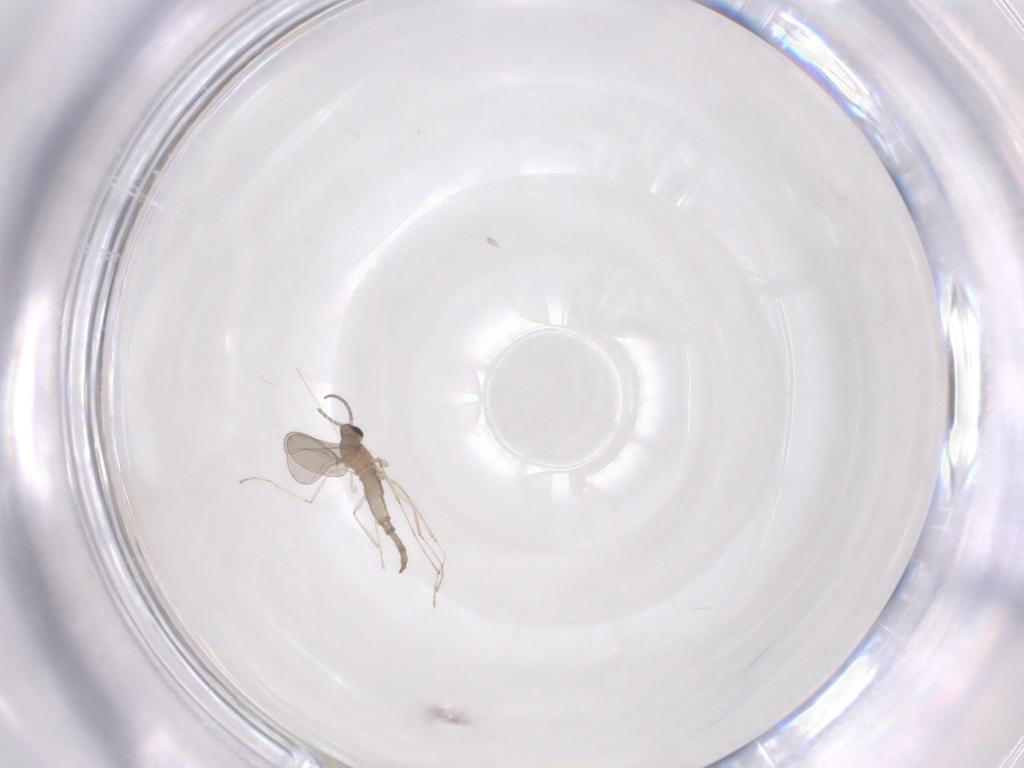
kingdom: Animalia
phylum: Arthropoda
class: Insecta
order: Diptera
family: Cecidomyiidae
